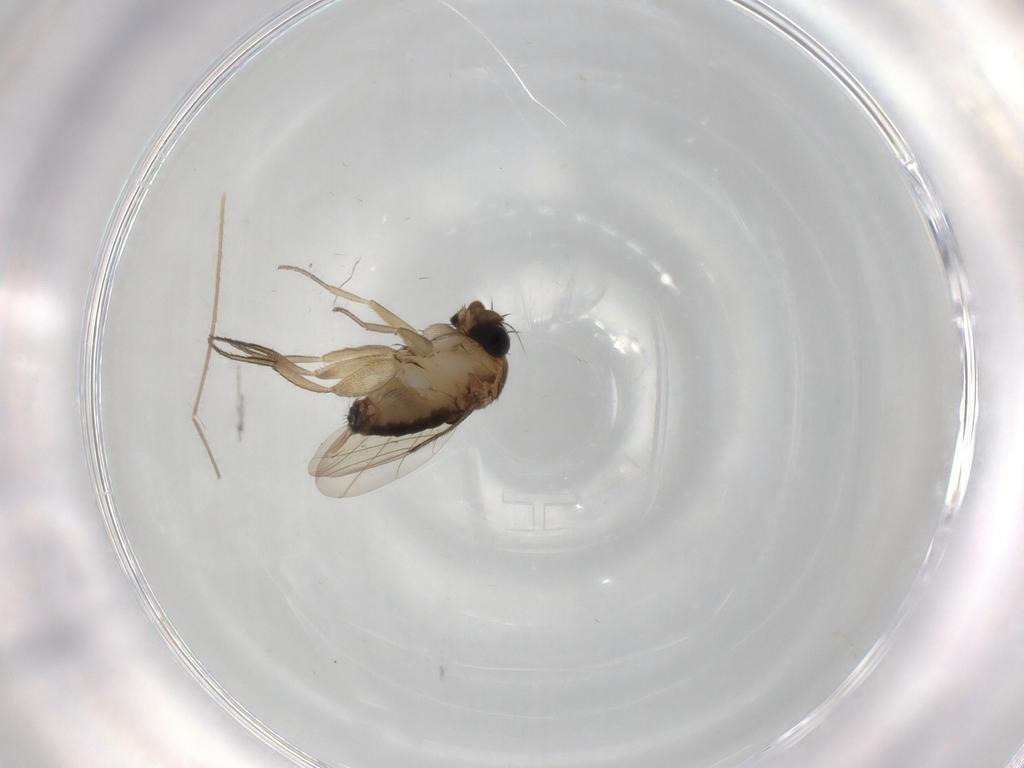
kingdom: Animalia
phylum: Arthropoda
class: Insecta
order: Diptera
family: Phoridae
